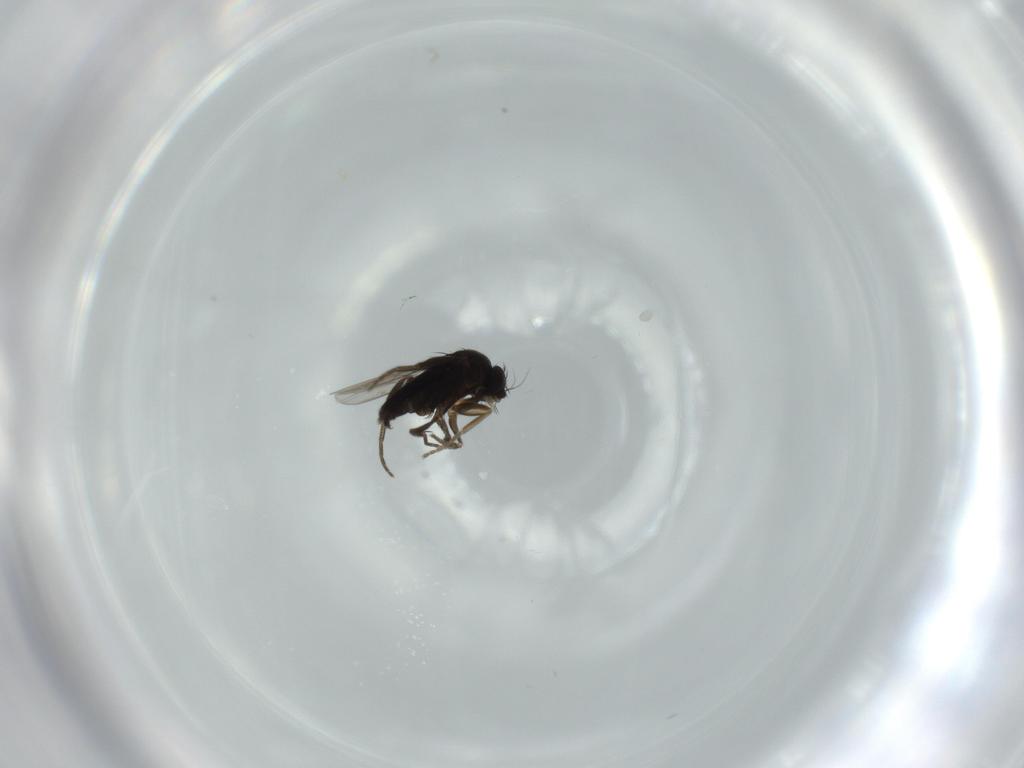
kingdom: Animalia
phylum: Arthropoda
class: Insecta
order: Diptera
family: Phoridae
